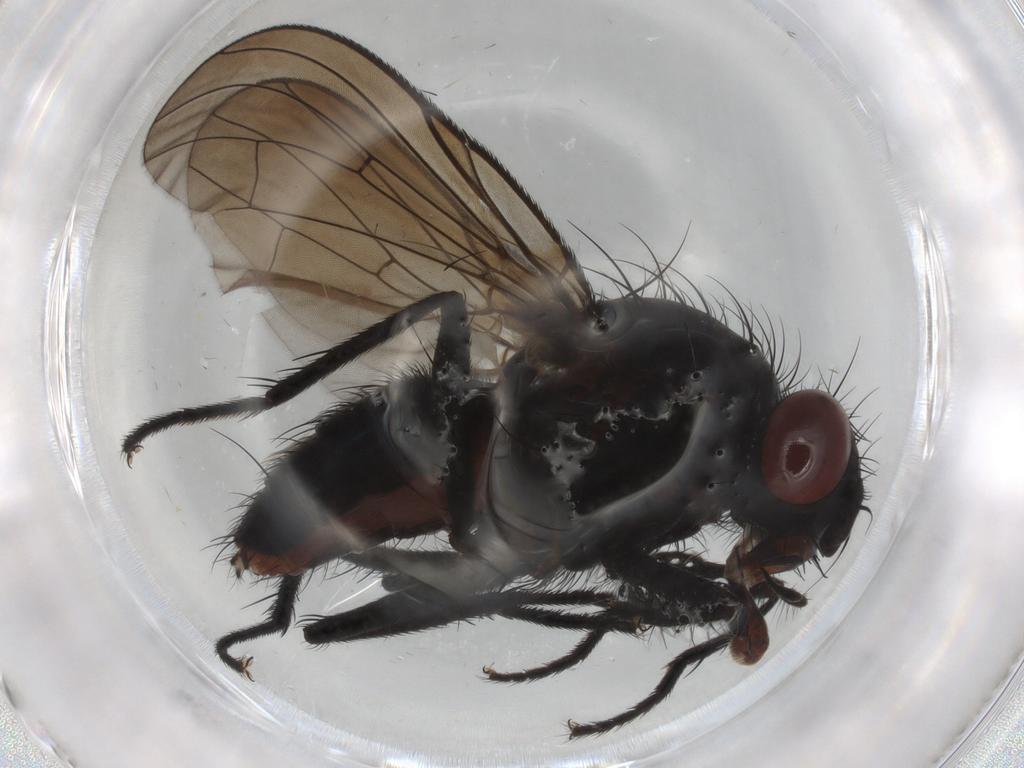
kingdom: Animalia
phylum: Arthropoda
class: Insecta
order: Diptera
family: Anthomyiidae
